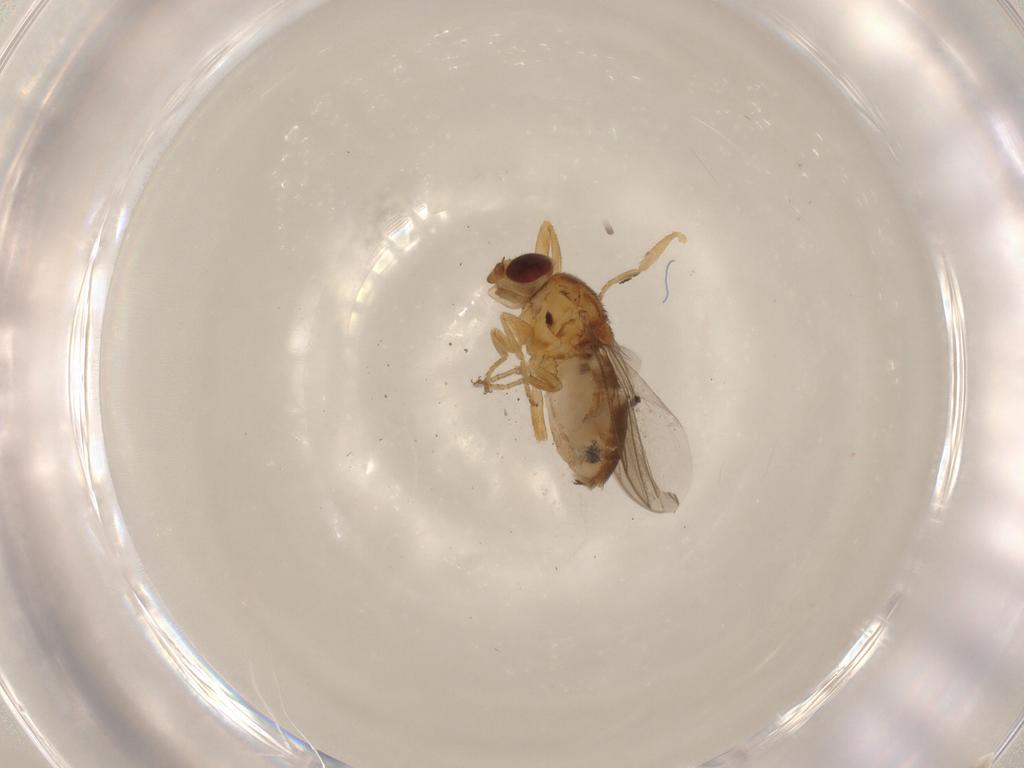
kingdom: Animalia
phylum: Arthropoda
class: Insecta
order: Diptera
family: Chloropidae
